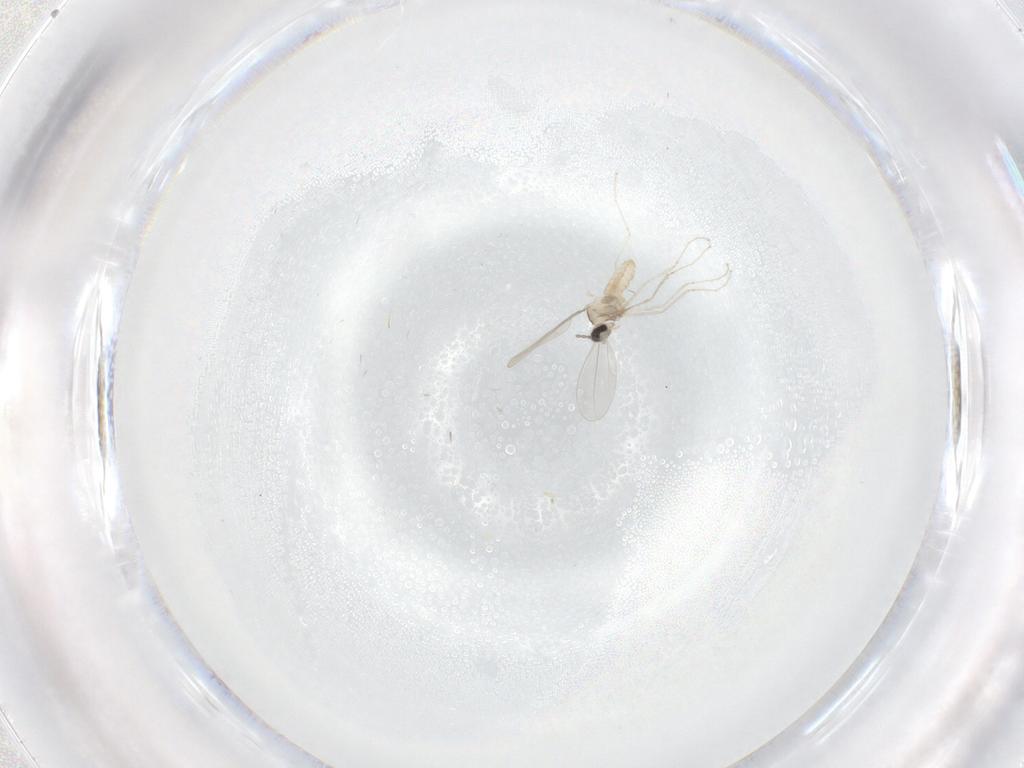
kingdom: Animalia
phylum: Arthropoda
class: Insecta
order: Diptera
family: Cecidomyiidae
